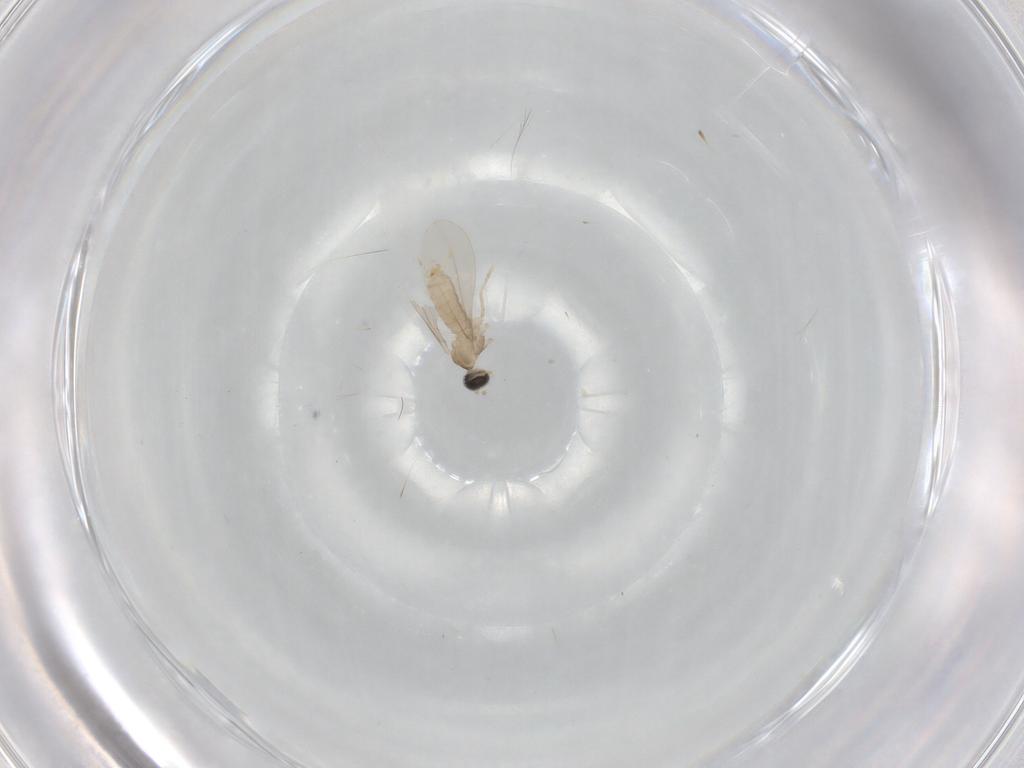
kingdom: Animalia
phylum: Arthropoda
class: Insecta
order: Diptera
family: Cecidomyiidae
